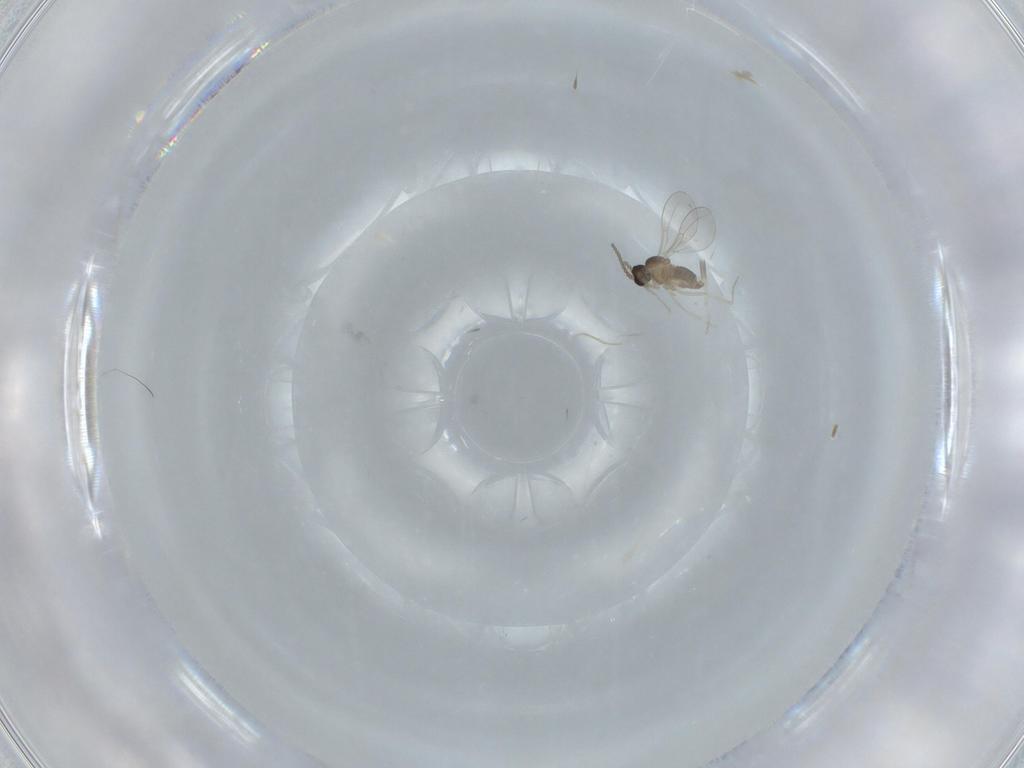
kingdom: Animalia
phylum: Arthropoda
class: Insecta
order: Diptera
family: Cecidomyiidae
